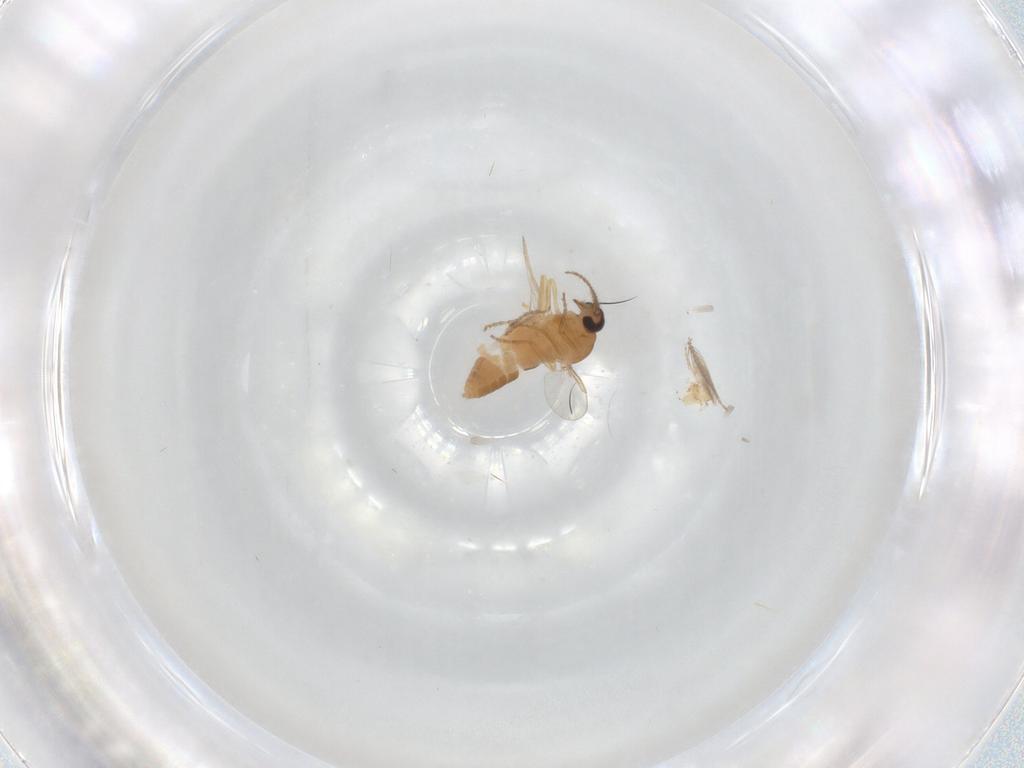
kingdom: Animalia
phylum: Arthropoda
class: Insecta
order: Diptera
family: Ceratopogonidae
